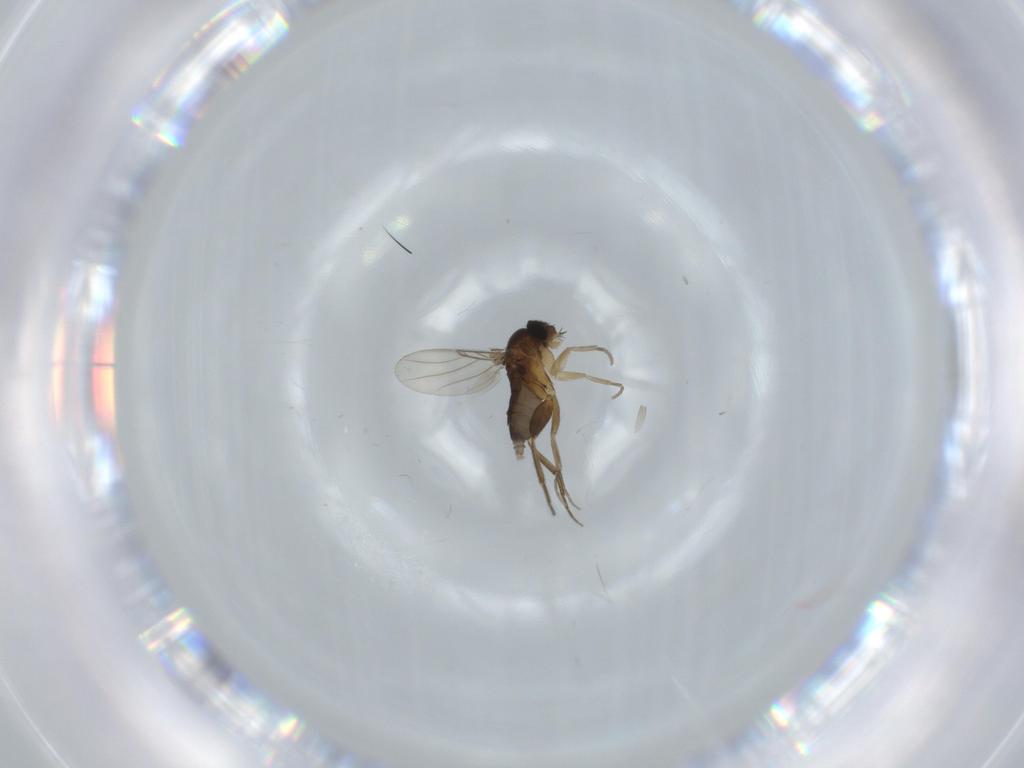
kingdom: Animalia
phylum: Arthropoda
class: Insecta
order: Diptera
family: Phoridae
